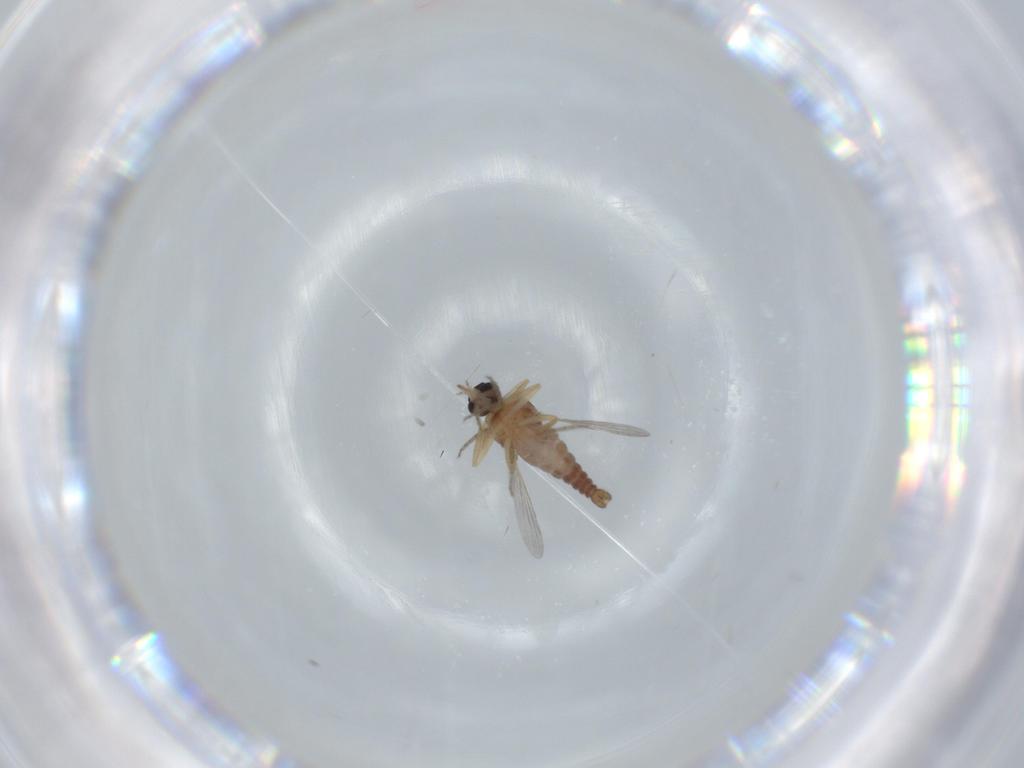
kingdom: Animalia
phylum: Arthropoda
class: Insecta
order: Diptera
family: Ceratopogonidae
